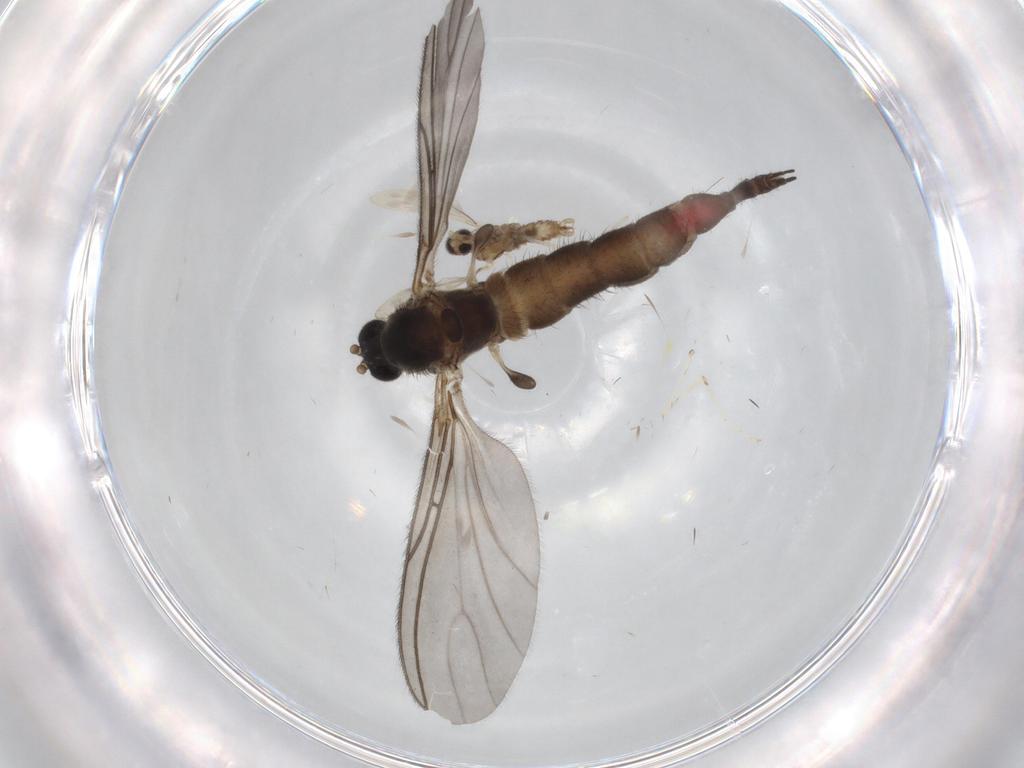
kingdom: Animalia
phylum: Arthropoda
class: Insecta
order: Diptera
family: Sciaridae
